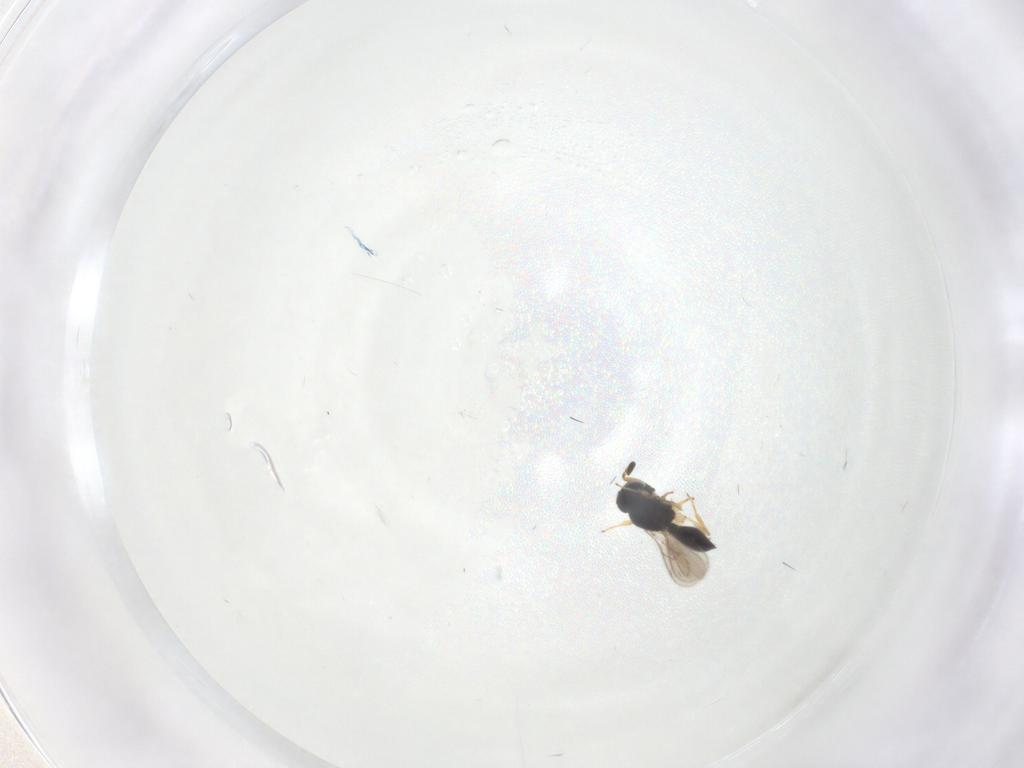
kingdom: Animalia
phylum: Arthropoda
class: Insecta
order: Hymenoptera
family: Scelionidae
